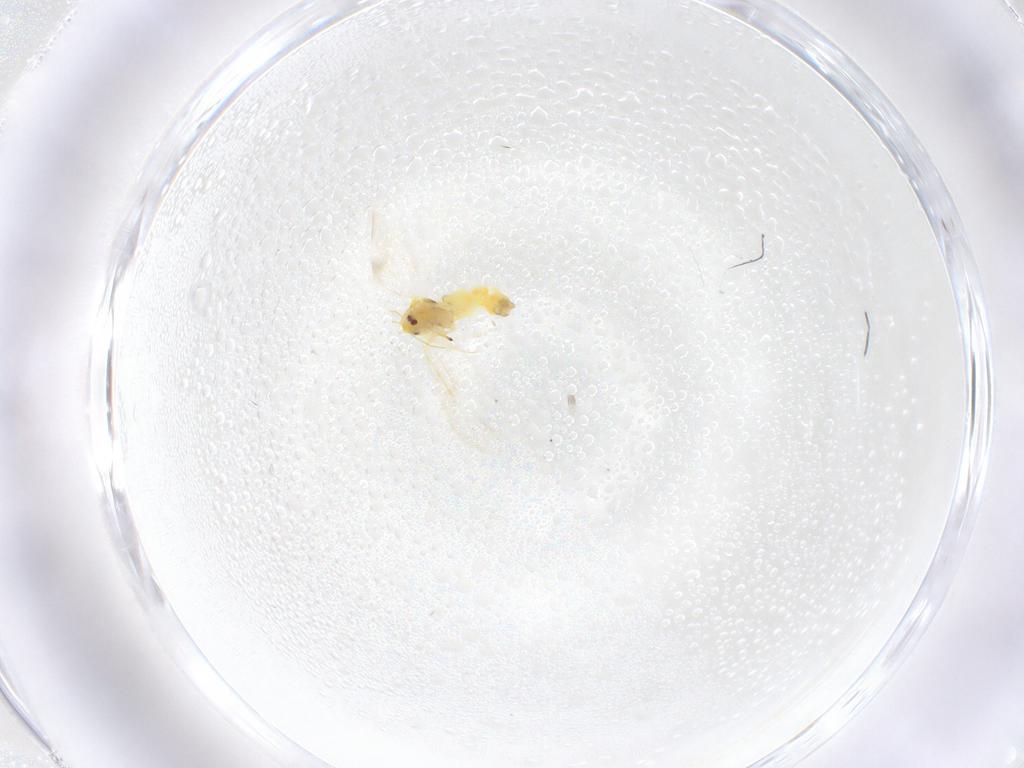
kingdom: Animalia
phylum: Arthropoda
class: Insecta
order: Hemiptera
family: Aleyrodidae
